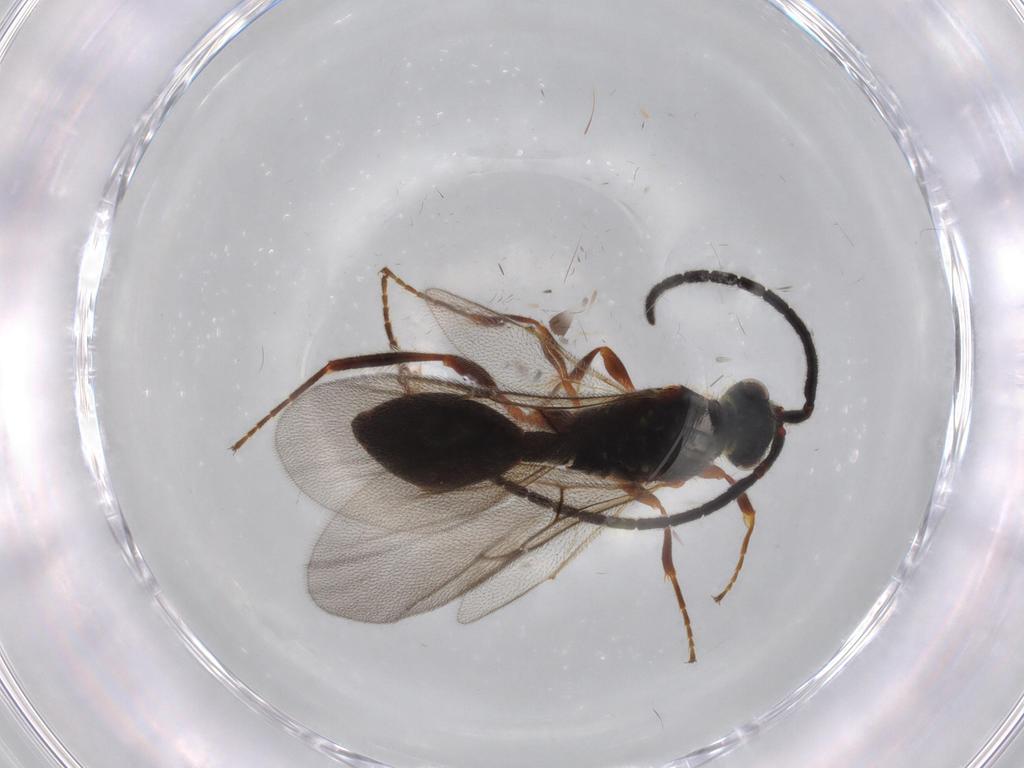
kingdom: Animalia
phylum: Arthropoda
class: Insecta
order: Hymenoptera
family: Diapriidae
